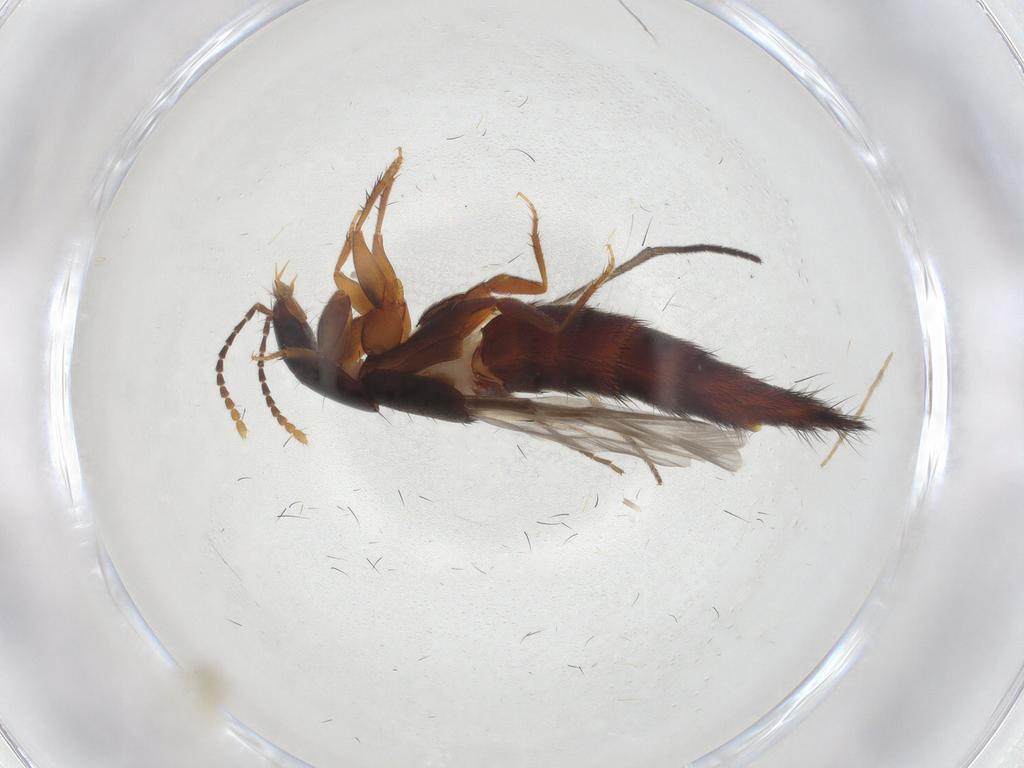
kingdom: Animalia
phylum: Arthropoda
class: Insecta
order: Coleoptera
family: Staphylinidae
